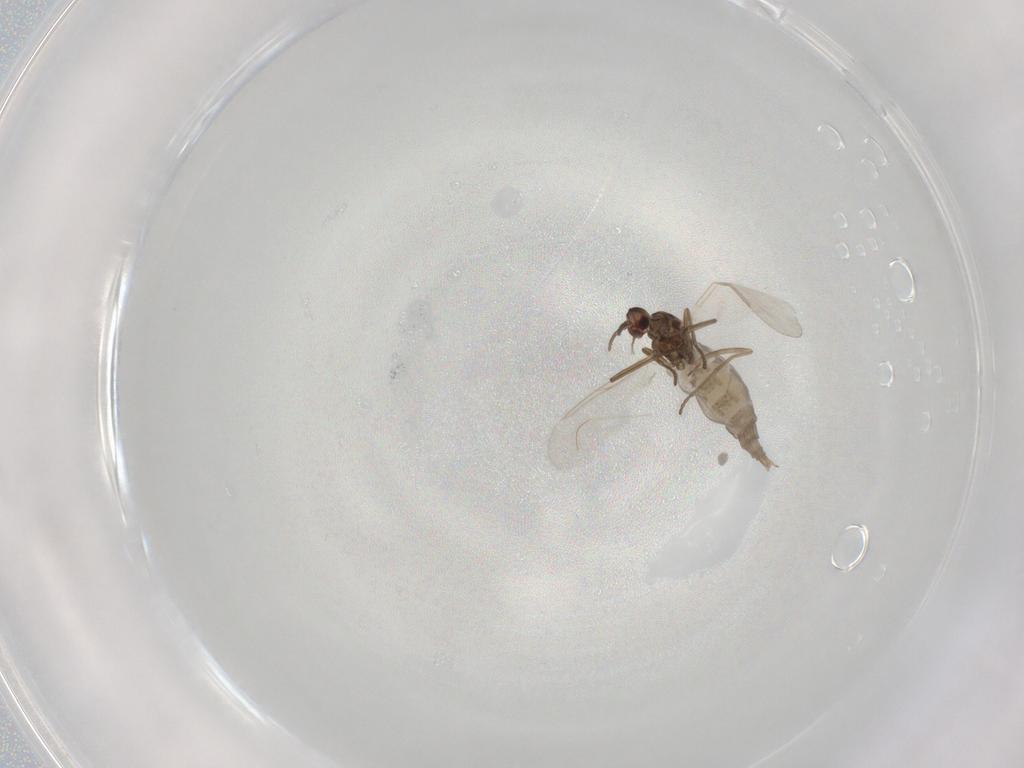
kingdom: Animalia
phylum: Arthropoda
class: Insecta
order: Diptera
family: Cecidomyiidae
